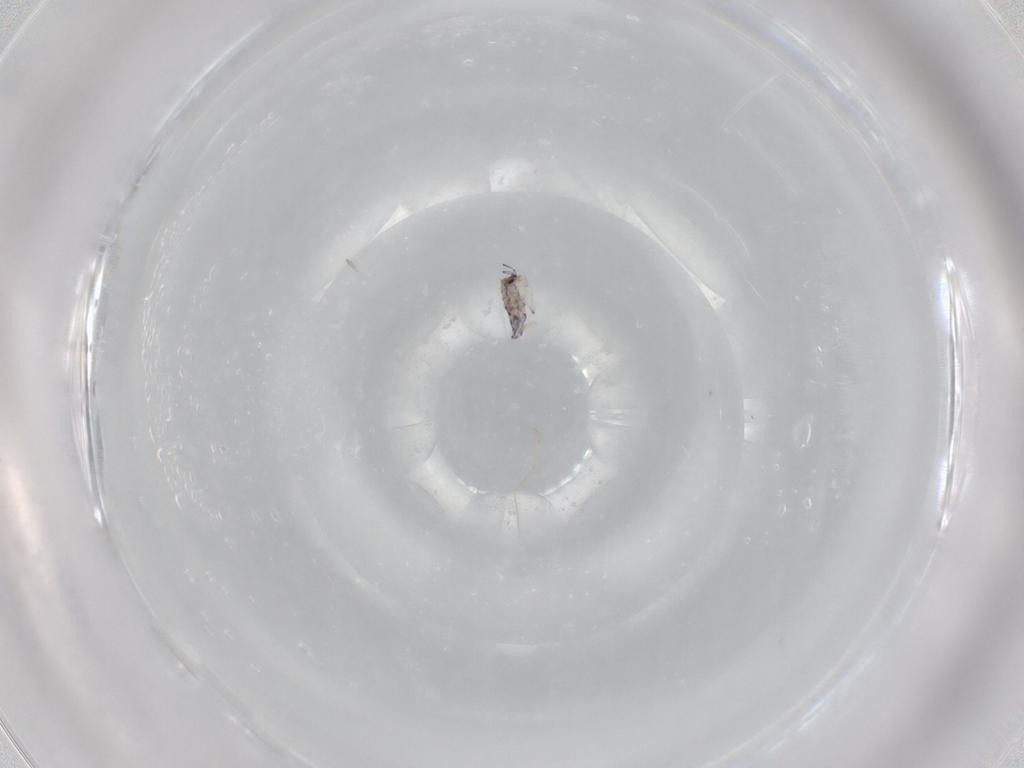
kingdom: Animalia
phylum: Arthropoda
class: Collembola
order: Entomobryomorpha
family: Entomobryidae
